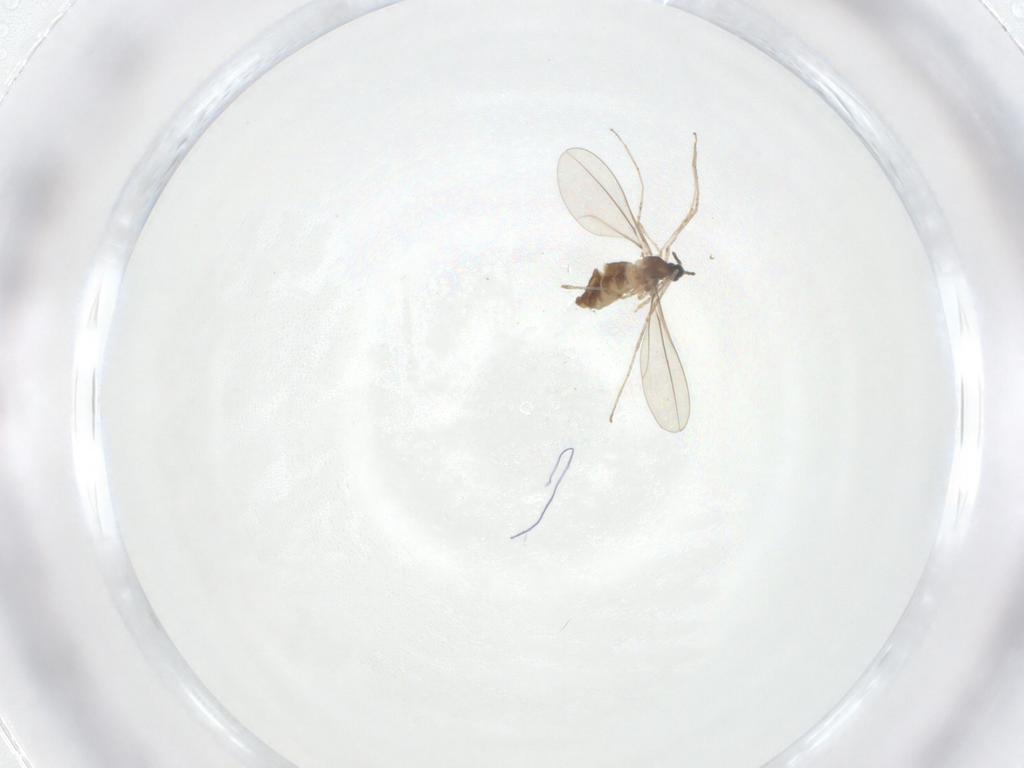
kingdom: Animalia
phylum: Arthropoda
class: Insecta
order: Diptera
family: Cecidomyiidae
